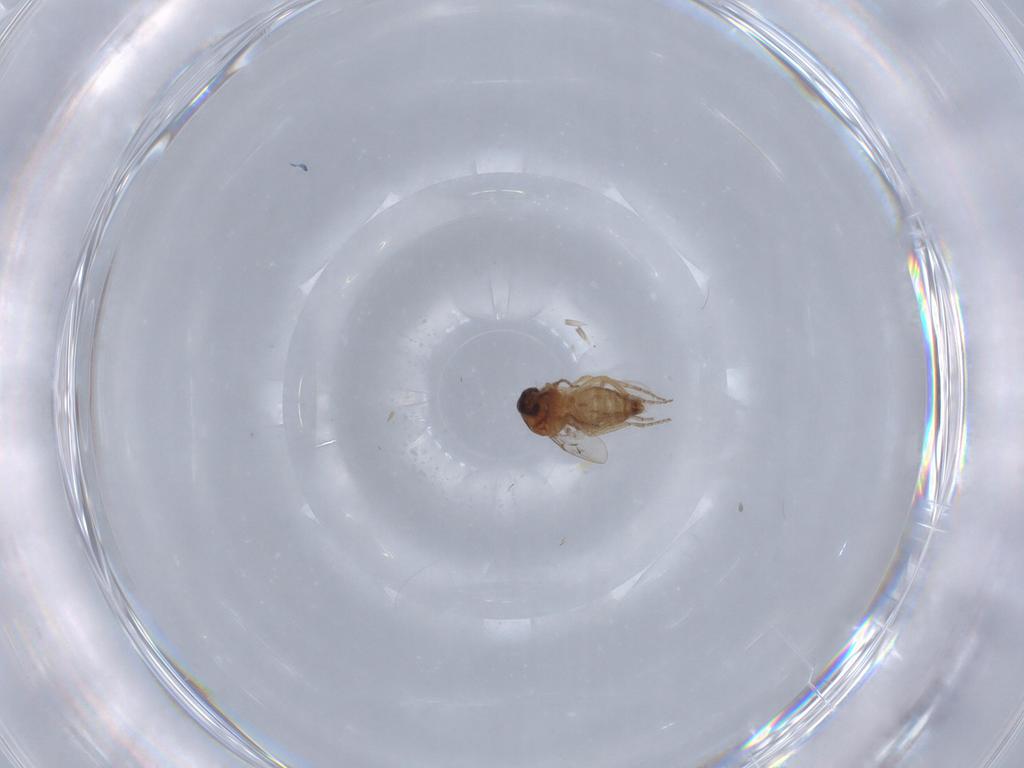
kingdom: Animalia
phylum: Arthropoda
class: Insecta
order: Diptera
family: Ceratopogonidae
